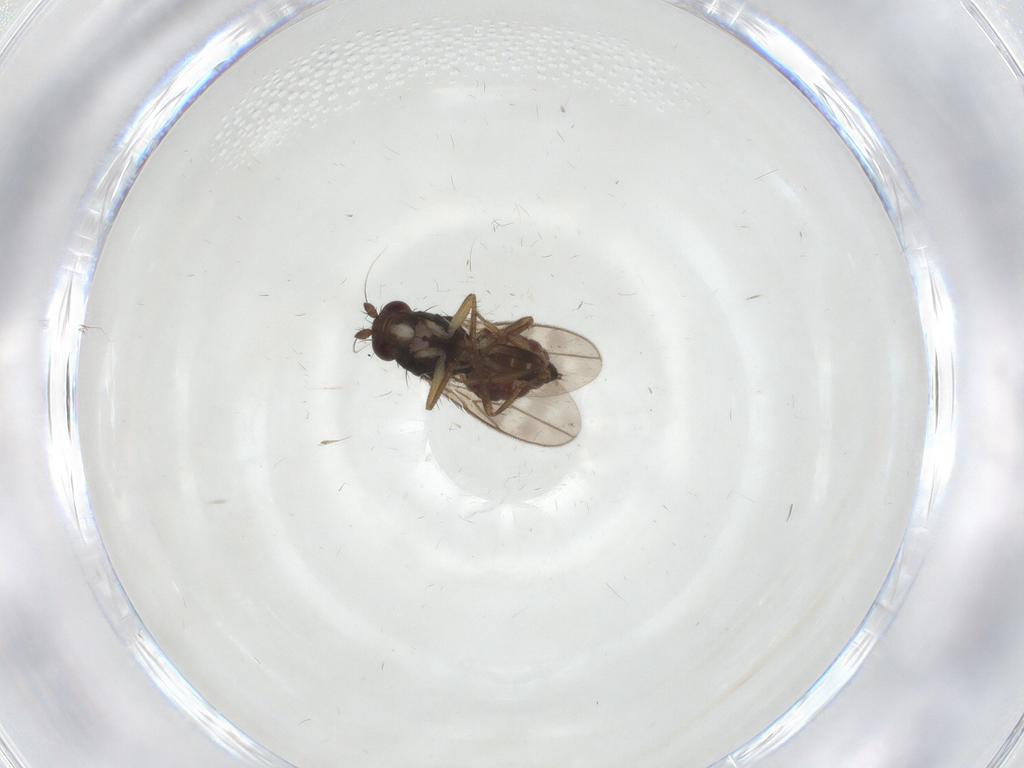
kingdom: Animalia
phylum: Arthropoda
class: Insecta
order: Diptera
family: Sphaeroceridae
